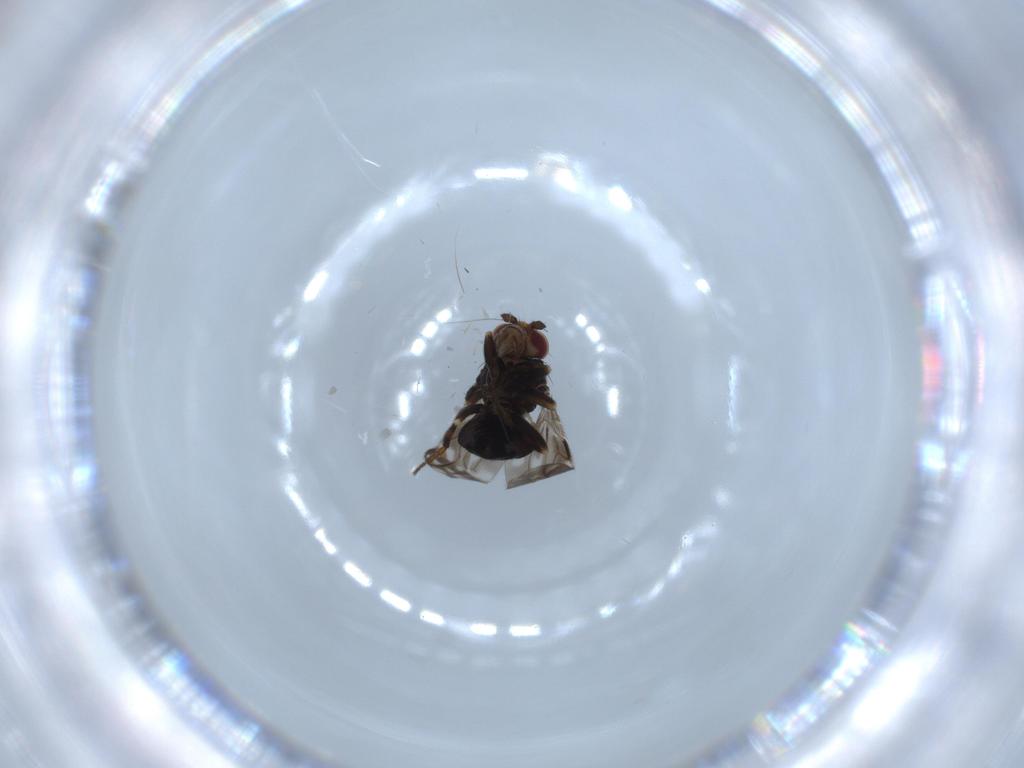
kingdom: Animalia
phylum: Arthropoda
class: Insecta
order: Diptera
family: Sphaeroceridae
